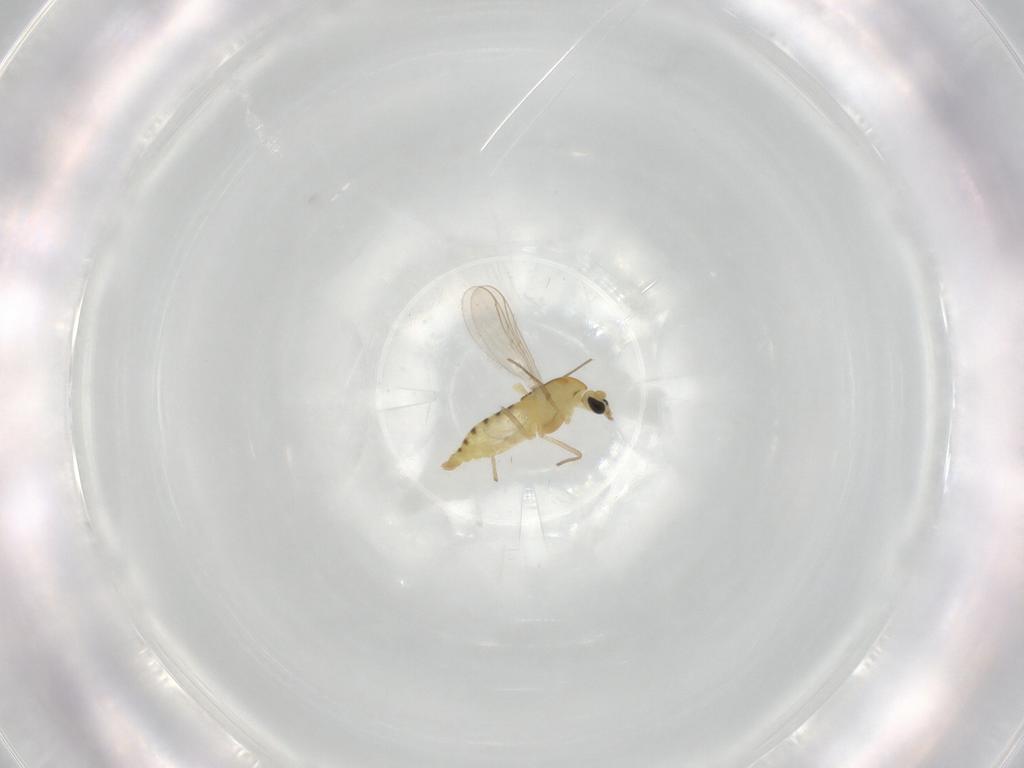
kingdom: Animalia
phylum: Arthropoda
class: Insecta
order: Diptera
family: Chironomidae
